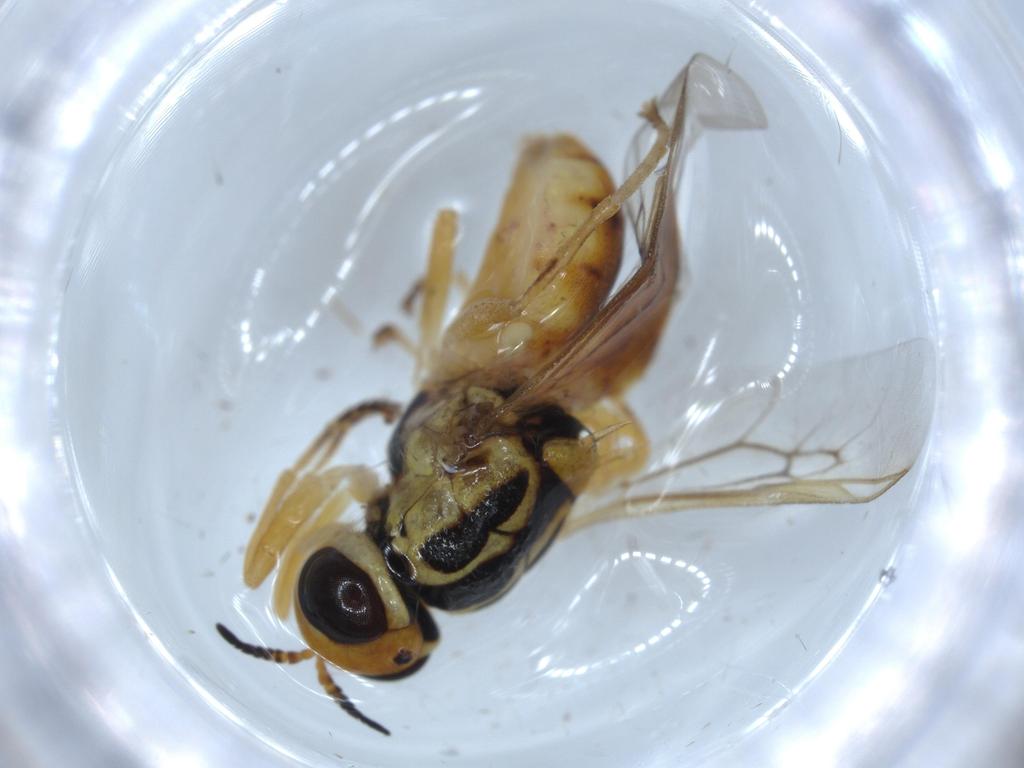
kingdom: Animalia
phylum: Arthropoda
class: Insecta
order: Diptera
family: Stratiomyidae
